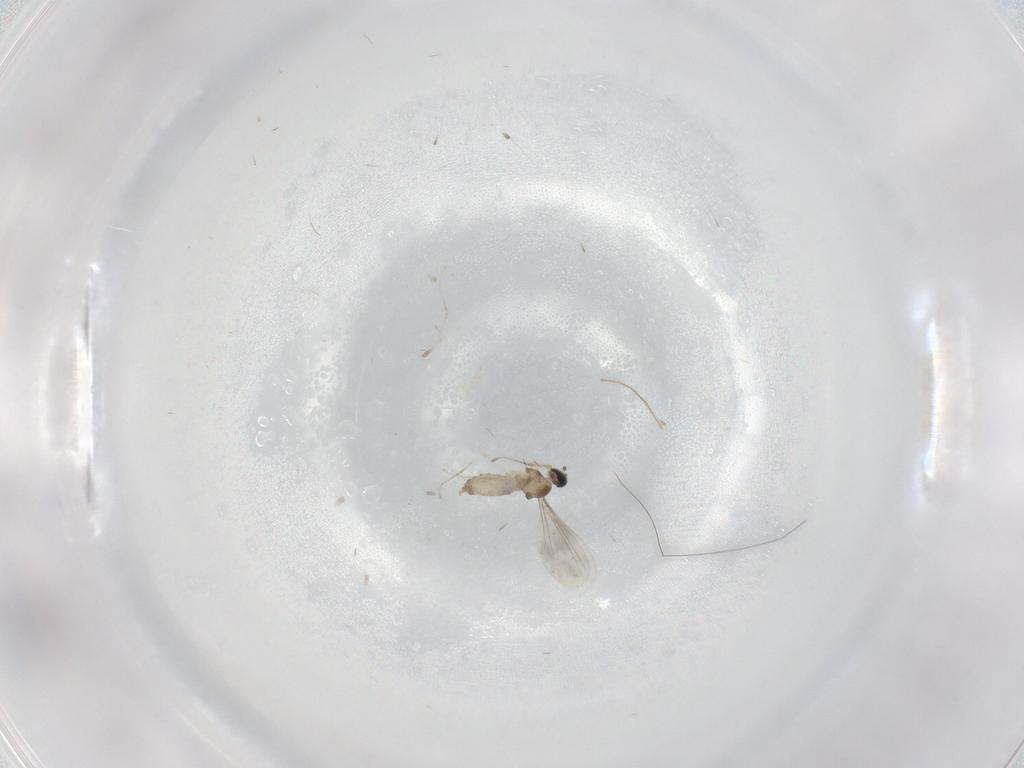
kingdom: Animalia
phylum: Arthropoda
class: Insecta
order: Diptera
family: Cecidomyiidae
